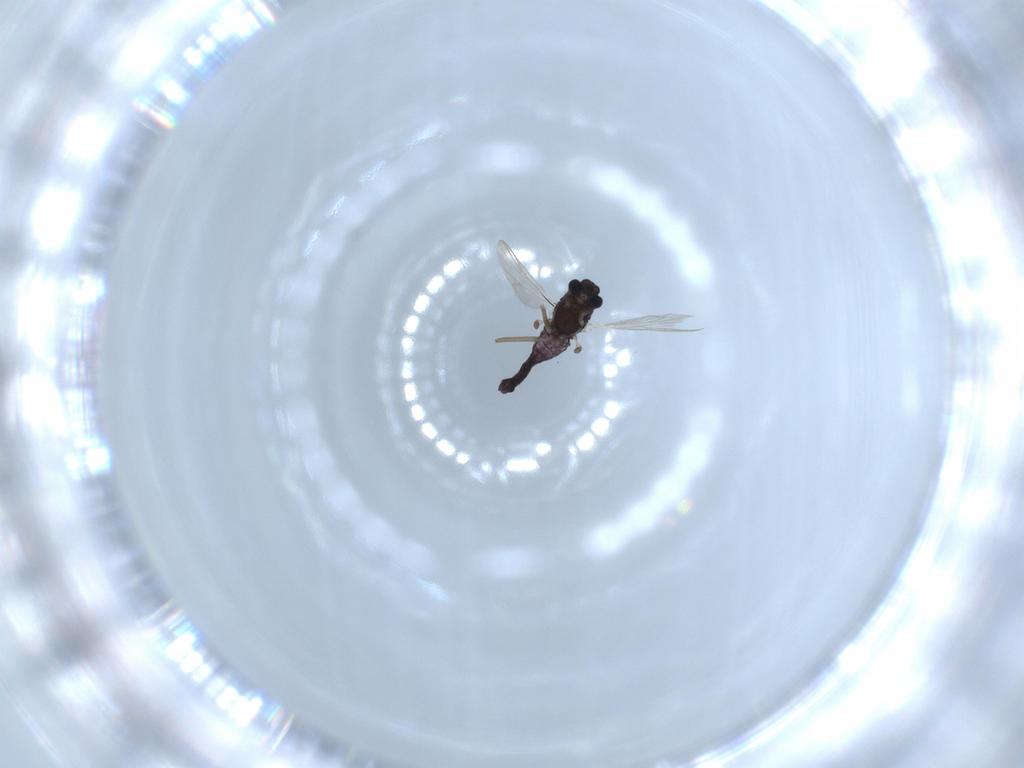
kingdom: Animalia
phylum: Arthropoda
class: Insecta
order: Diptera
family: Chironomidae
